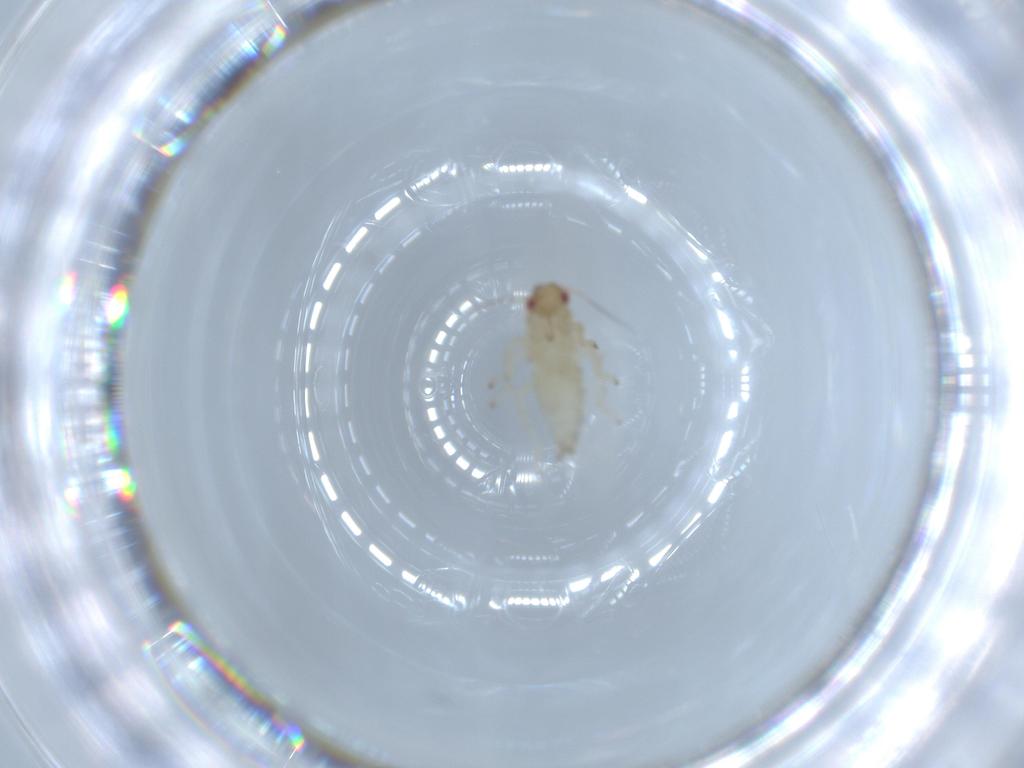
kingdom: Animalia
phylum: Arthropoda
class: Insecta
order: Hemiptera
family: Cicadellidae
